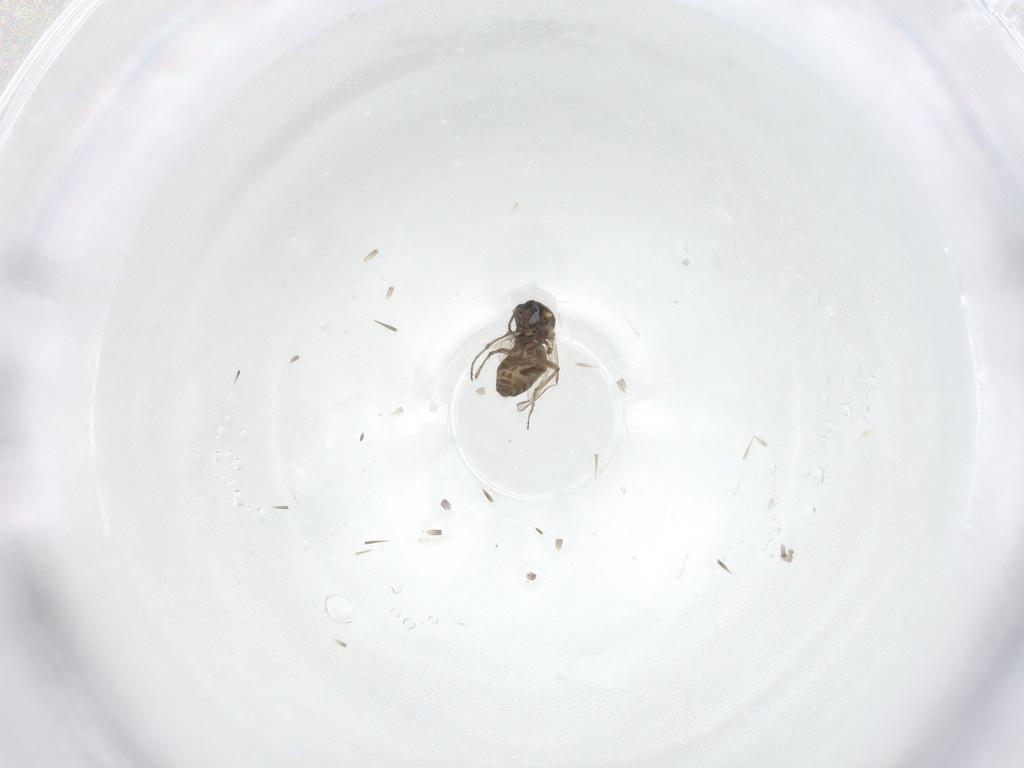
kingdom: Animalia
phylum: Arthropoda
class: Insecta
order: Diptera
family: Ceratopogonidae
